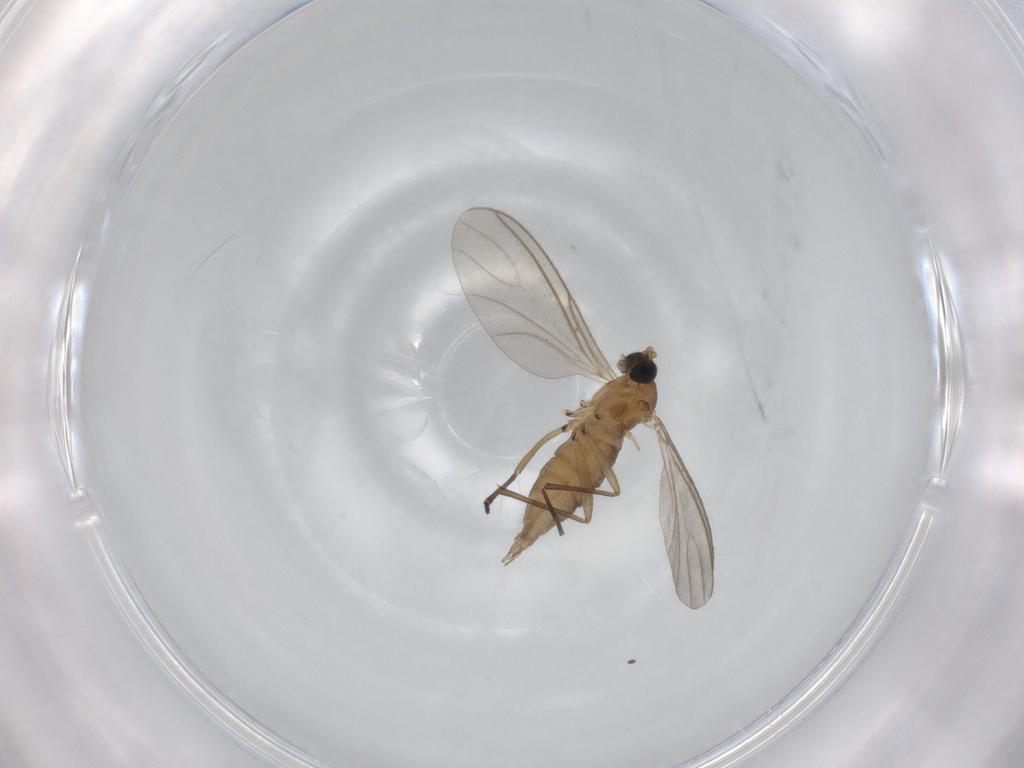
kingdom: Animalia
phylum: Arthropoda
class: Insecta
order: Diptera
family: Sciaridae
